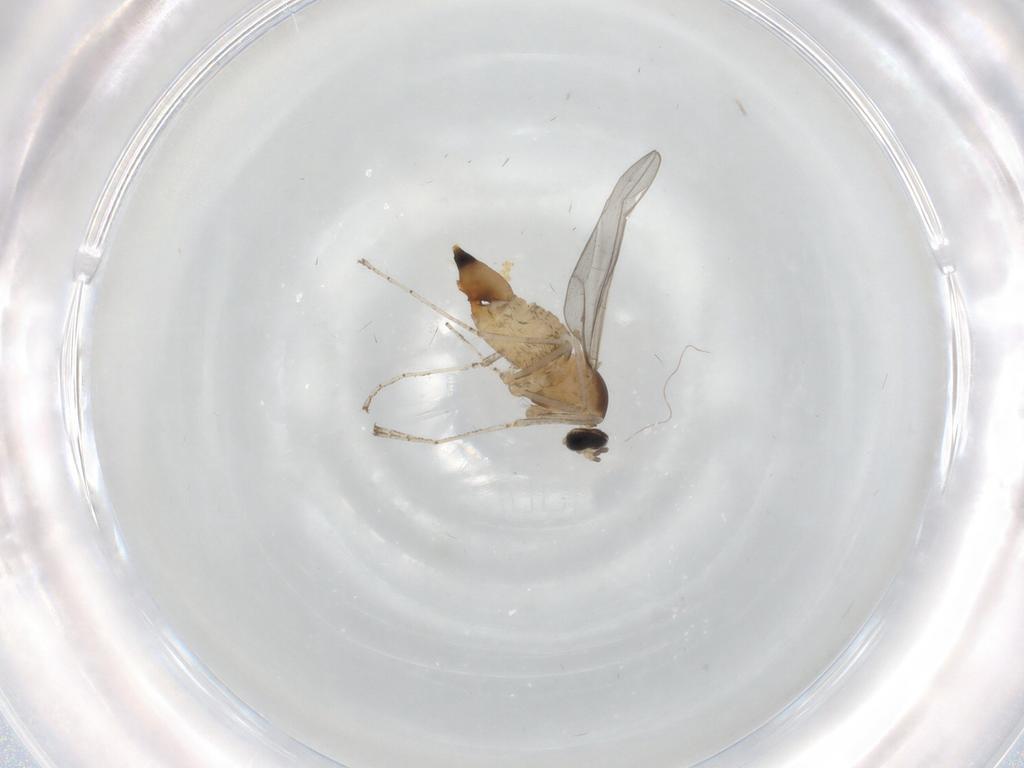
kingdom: Animalia
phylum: Arthropoda
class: Insecta
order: Diptera
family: Cecidomyiidae
